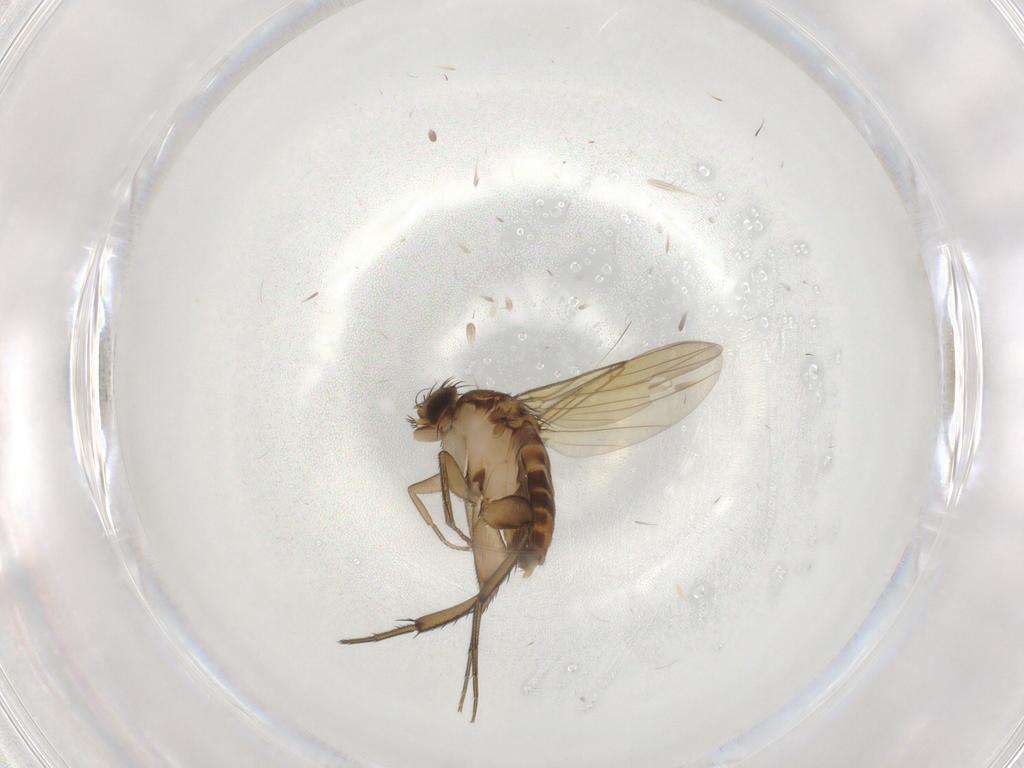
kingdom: Animalia
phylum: Arthropoda
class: Insecta
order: Diptera
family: Phoridae
